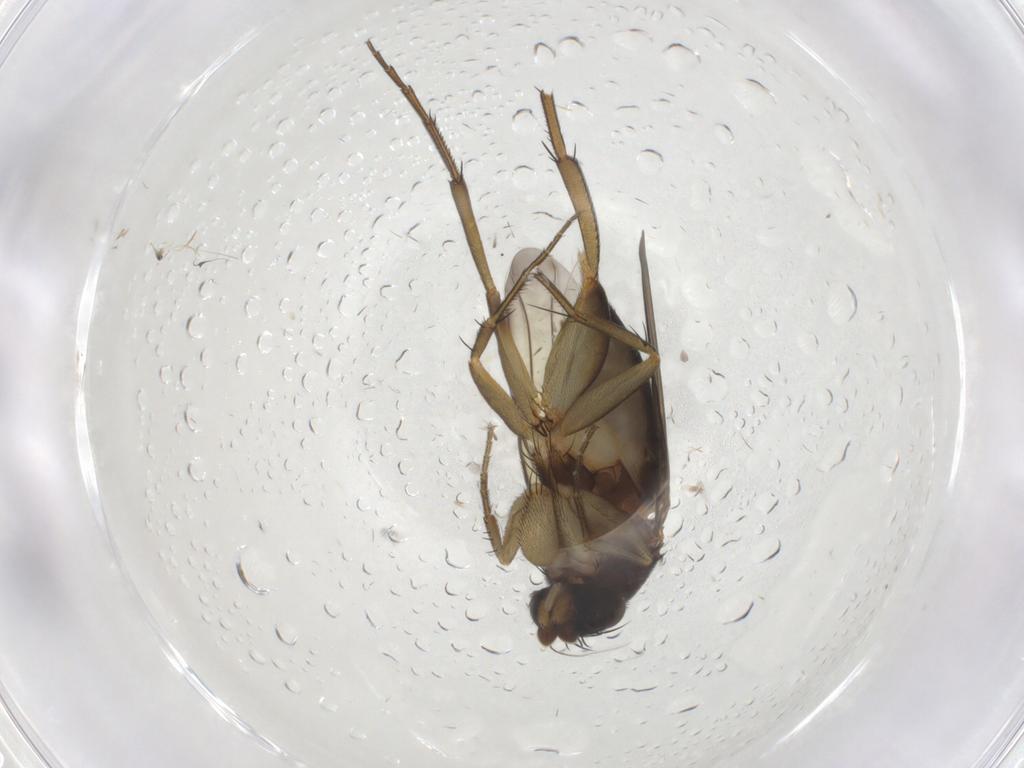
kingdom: Animalia
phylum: Arthropoda
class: Insecta
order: Diptera
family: Phoridae
